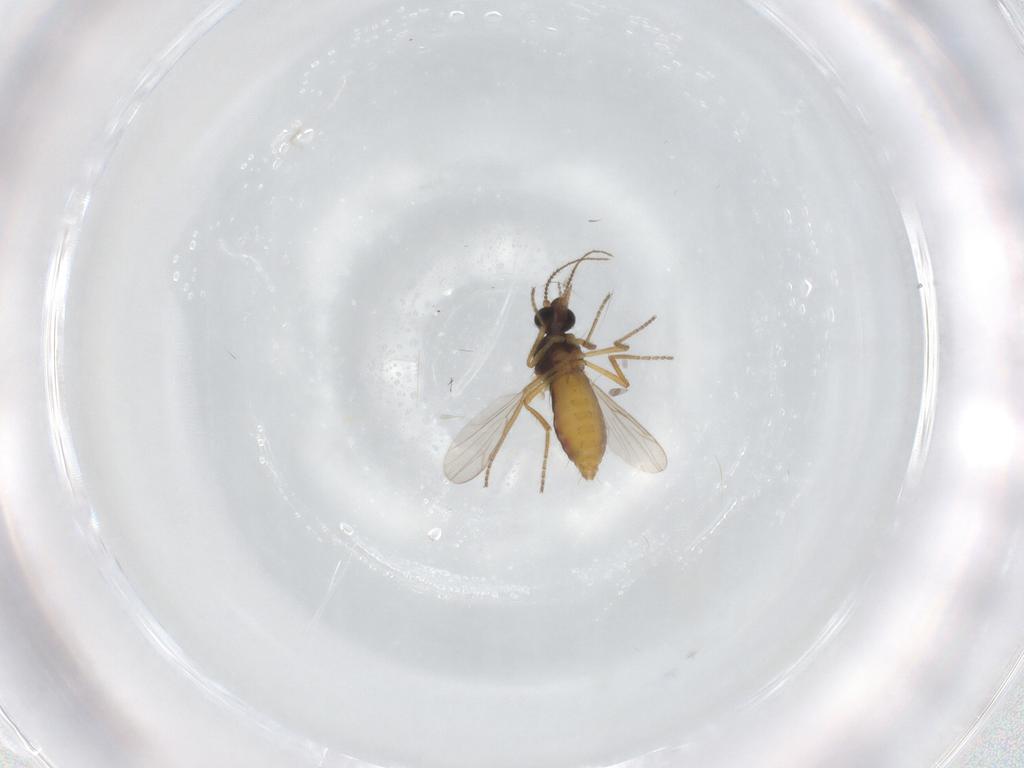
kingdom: Animalia
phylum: Arthropoda
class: Insecta
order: Diptera
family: Ceratopogonidae
